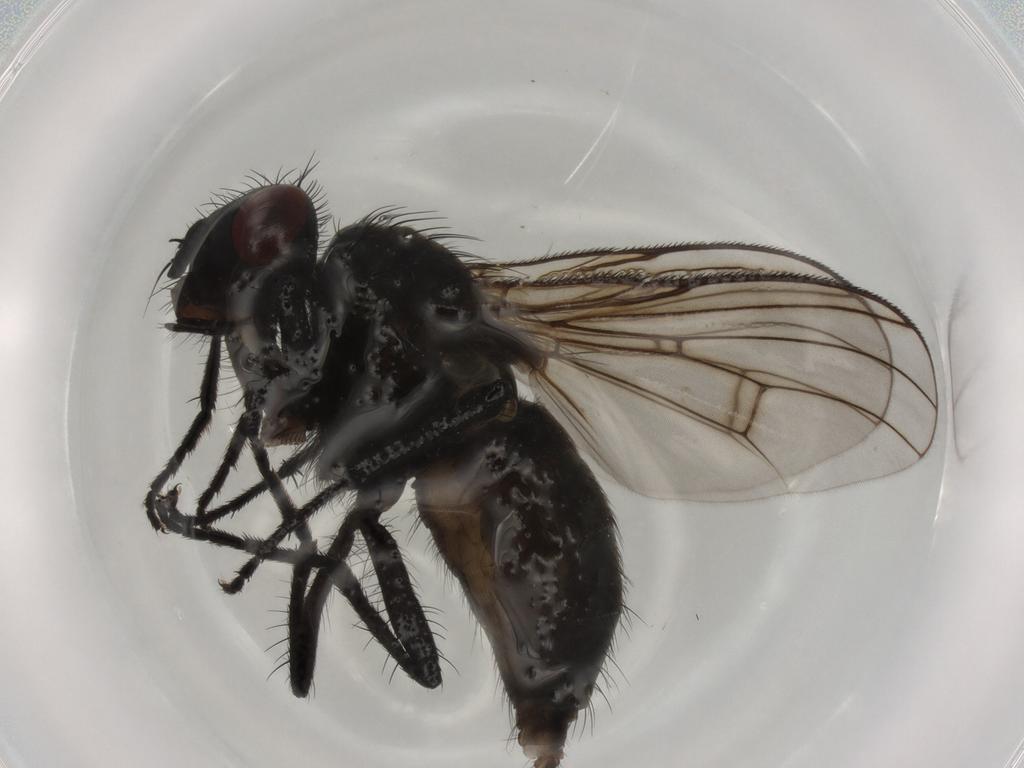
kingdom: Animalia
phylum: Arthropoda
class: Insecta
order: Diptera
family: Muscidae
